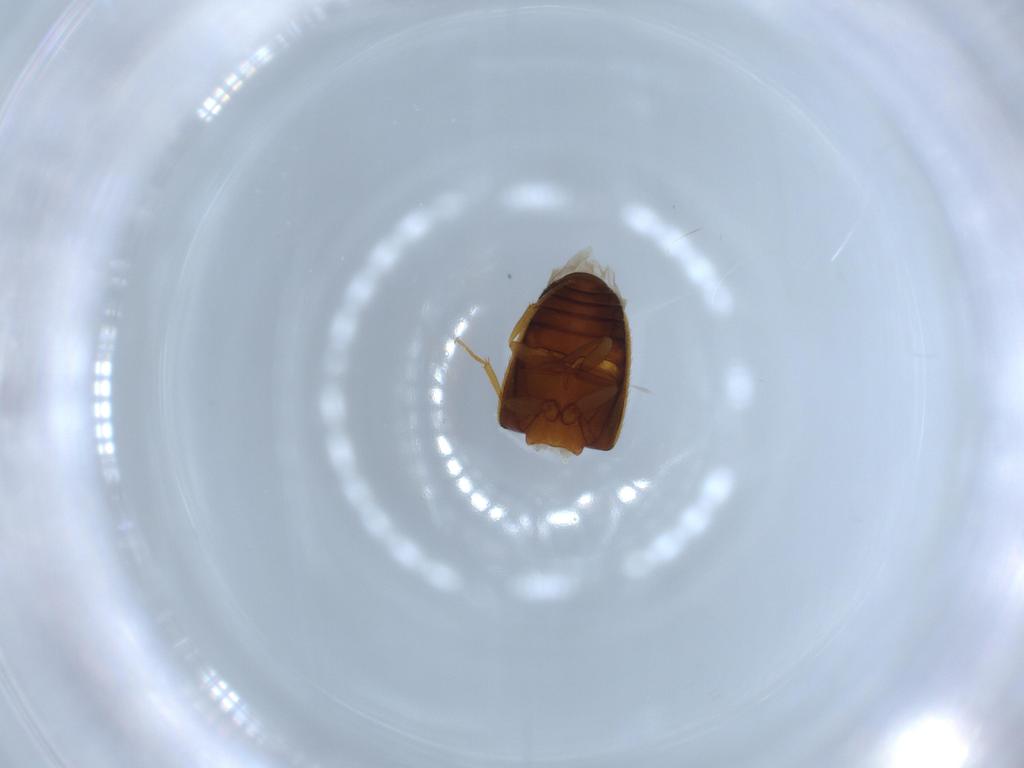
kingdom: Animalia
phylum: Arthropoda
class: Insecta
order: Coleoptera
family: Mycetophagidae
